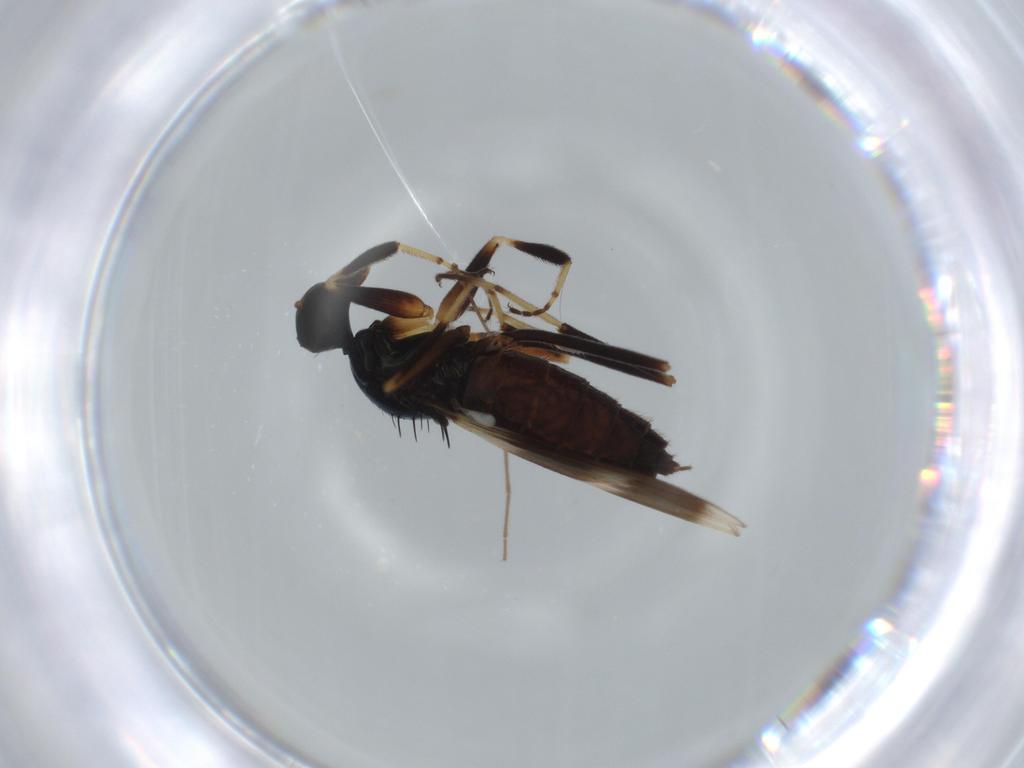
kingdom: Animalia
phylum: Arthropoda
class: Insecta
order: Diptera
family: Hybotidae
